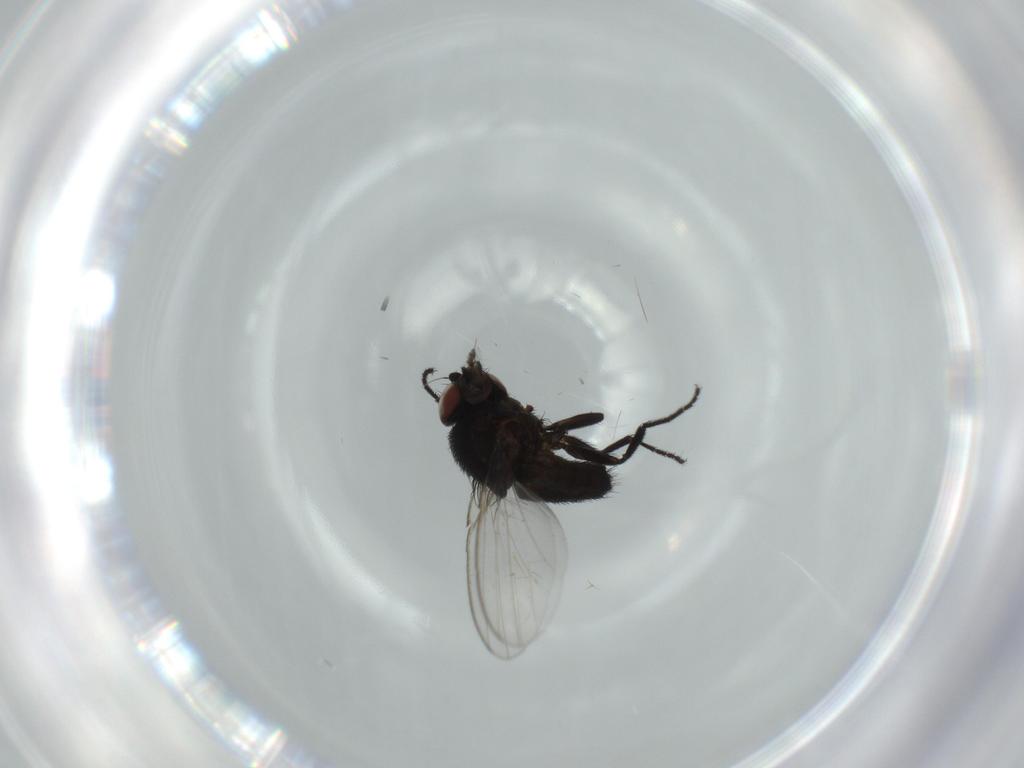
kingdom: Animalia
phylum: Arthropoda
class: Insecta
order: Diptera
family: Milichiidae
